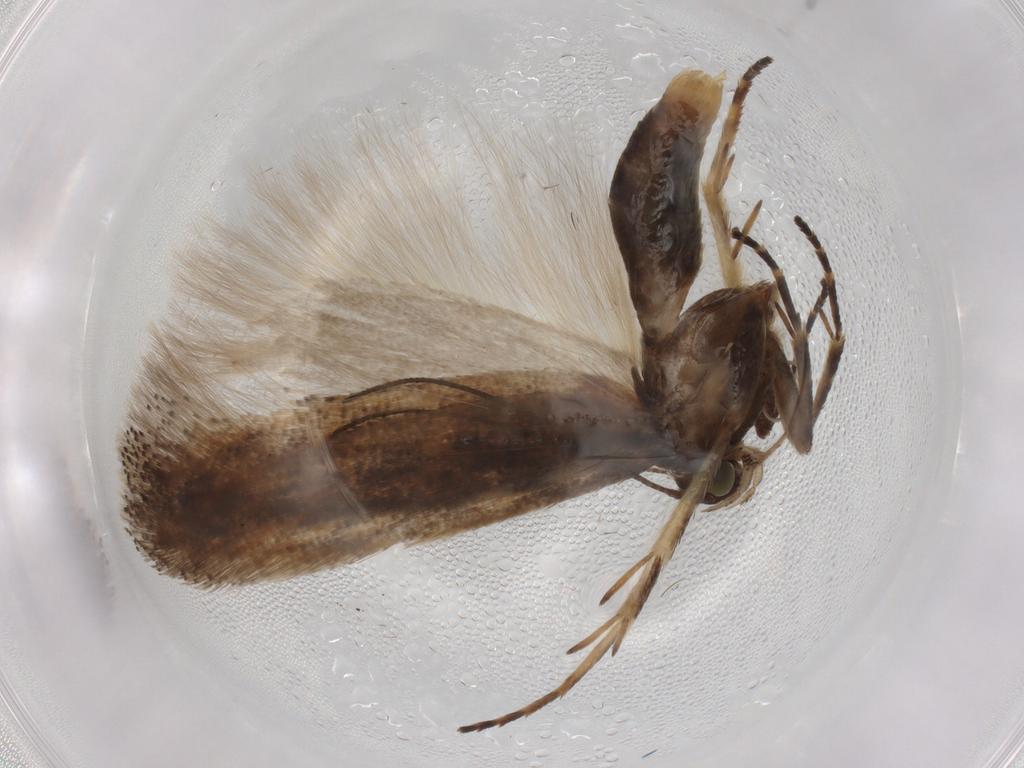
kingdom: Animalia
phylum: Arthropoda
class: Insecta
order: Lepidoptera
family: Gelechiidae
